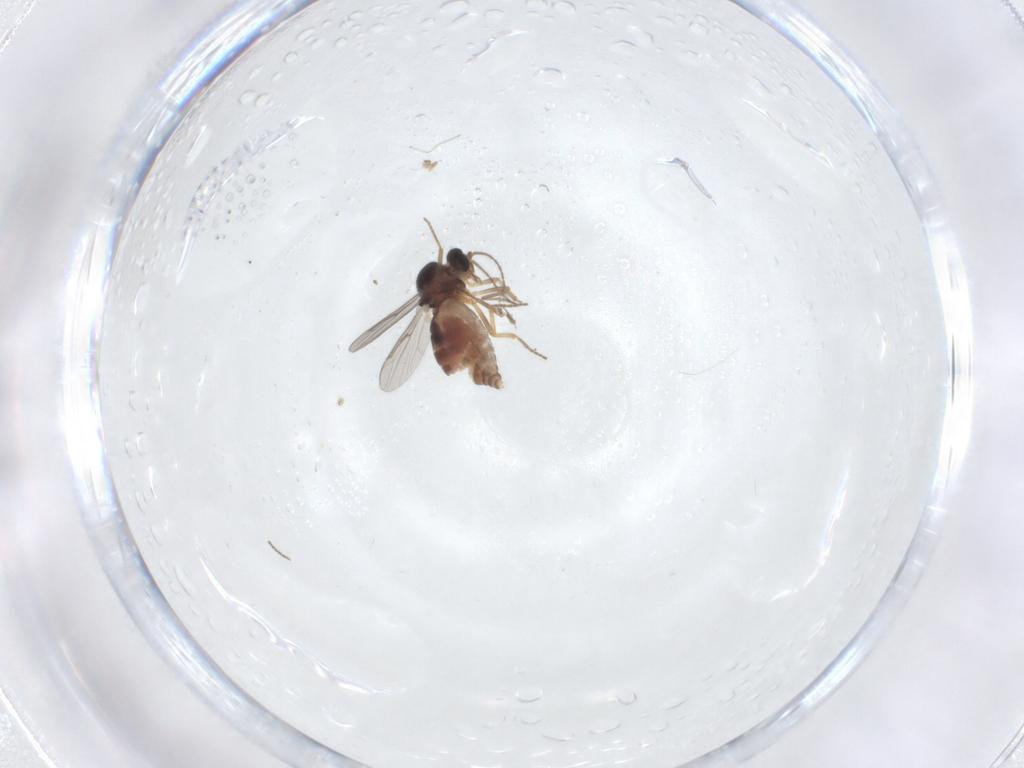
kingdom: Animalia
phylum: Arthropoda
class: Insecta
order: Diptera
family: Ceratopogonidae
